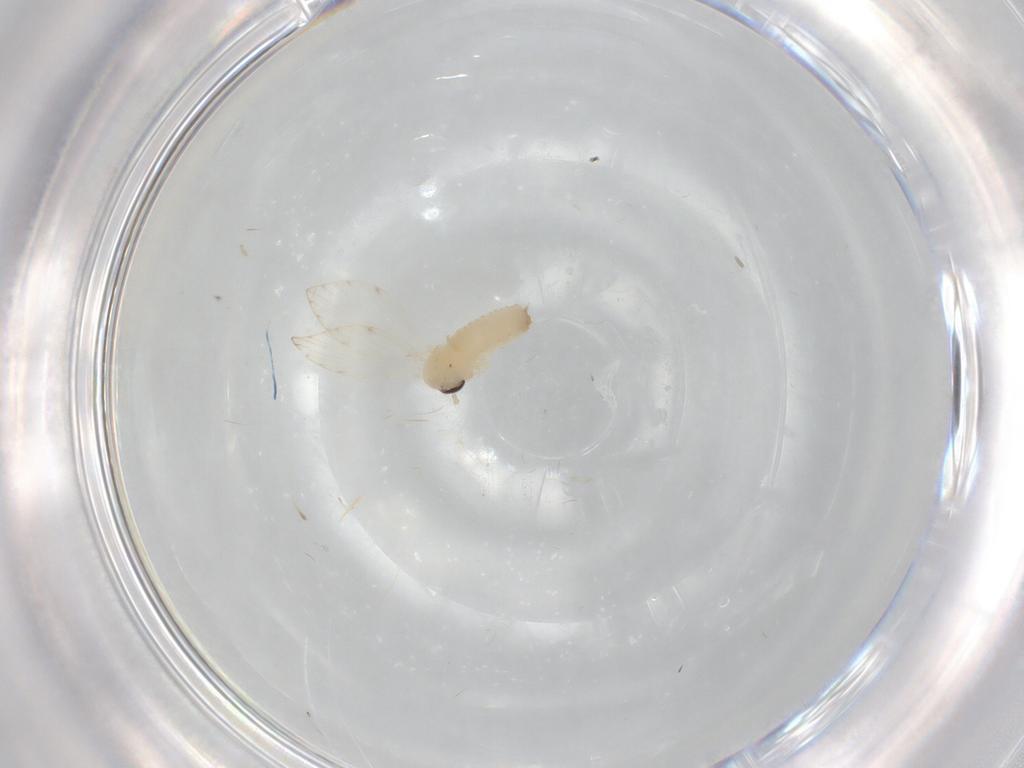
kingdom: Animalia
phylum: Arthropoda
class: Insecta
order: Diptera
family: Psychodidae
